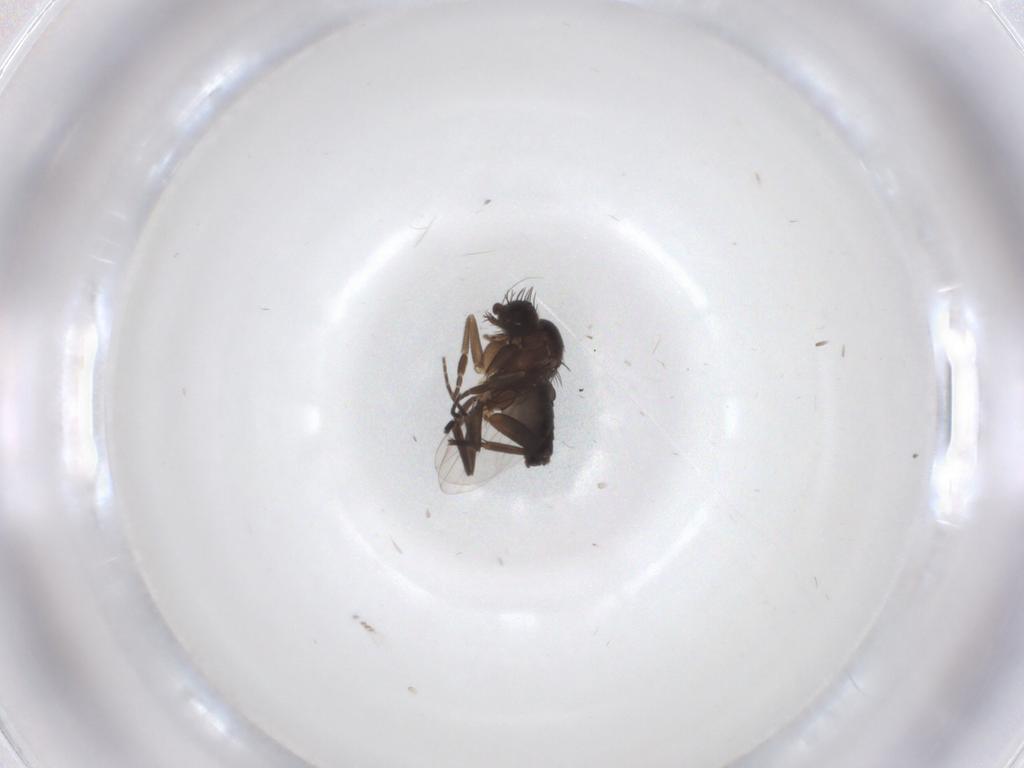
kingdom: Animalia
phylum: Arthropoda
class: Insecta
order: Diptera
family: Phoridae
